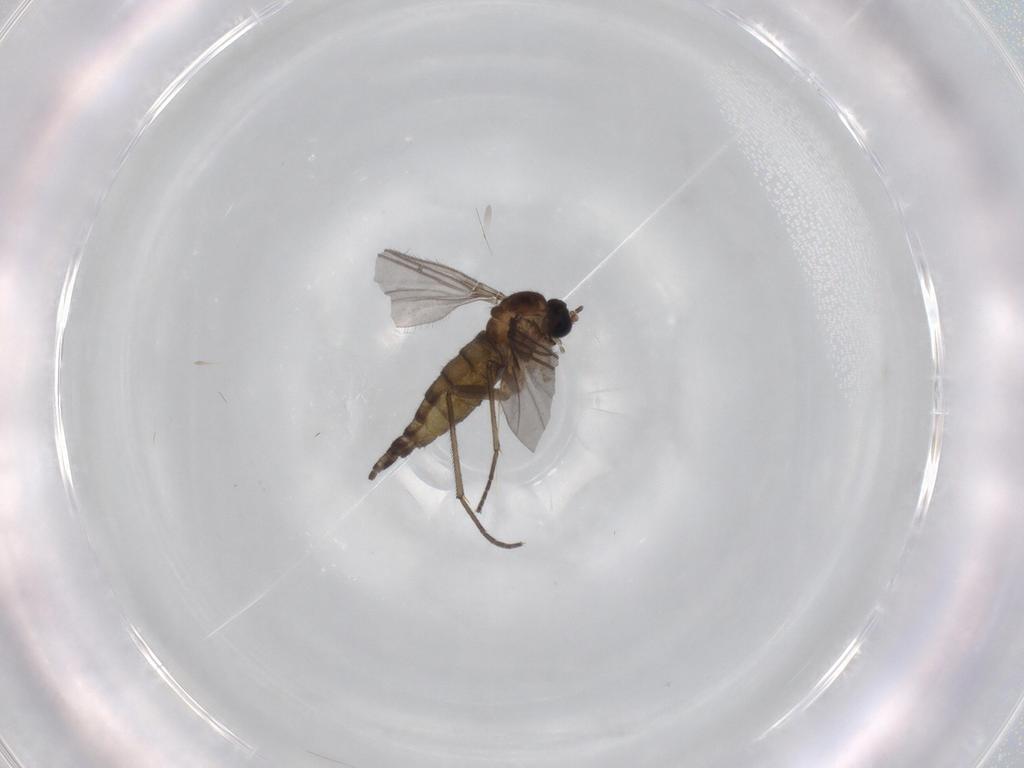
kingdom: Animalia
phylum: Arthropoda
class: Insecta
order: Diptera
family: Sciaridae
